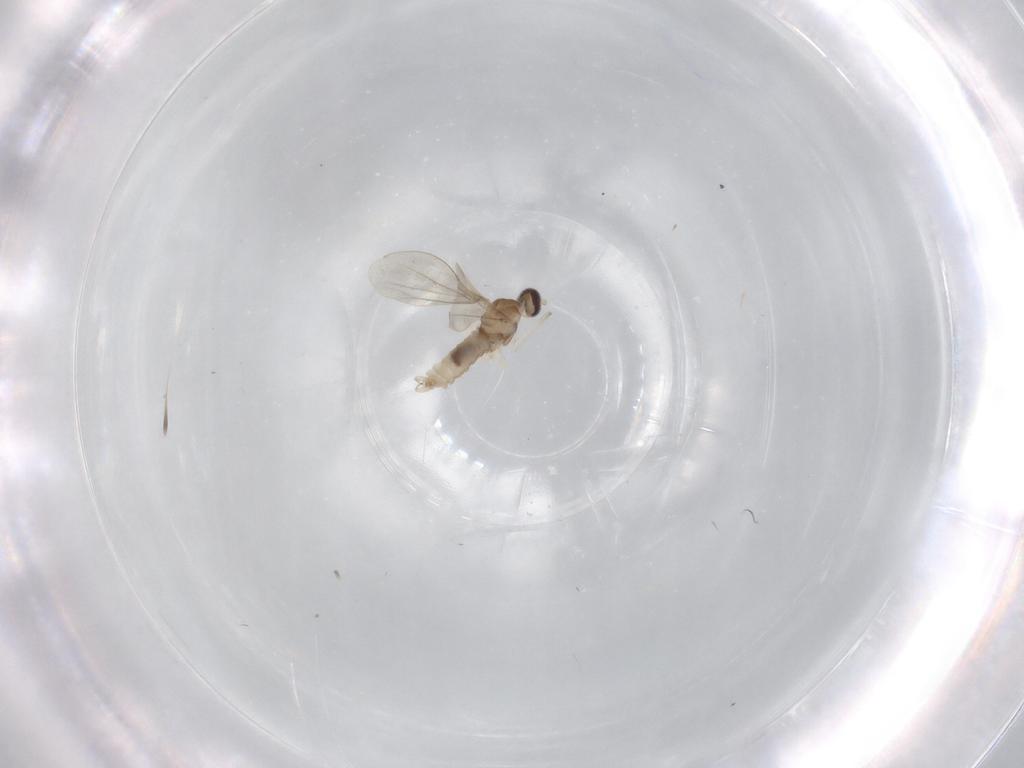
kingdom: Animalia
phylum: Arthropoda
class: Insecta
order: Diptera
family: Cecidomyiidae
